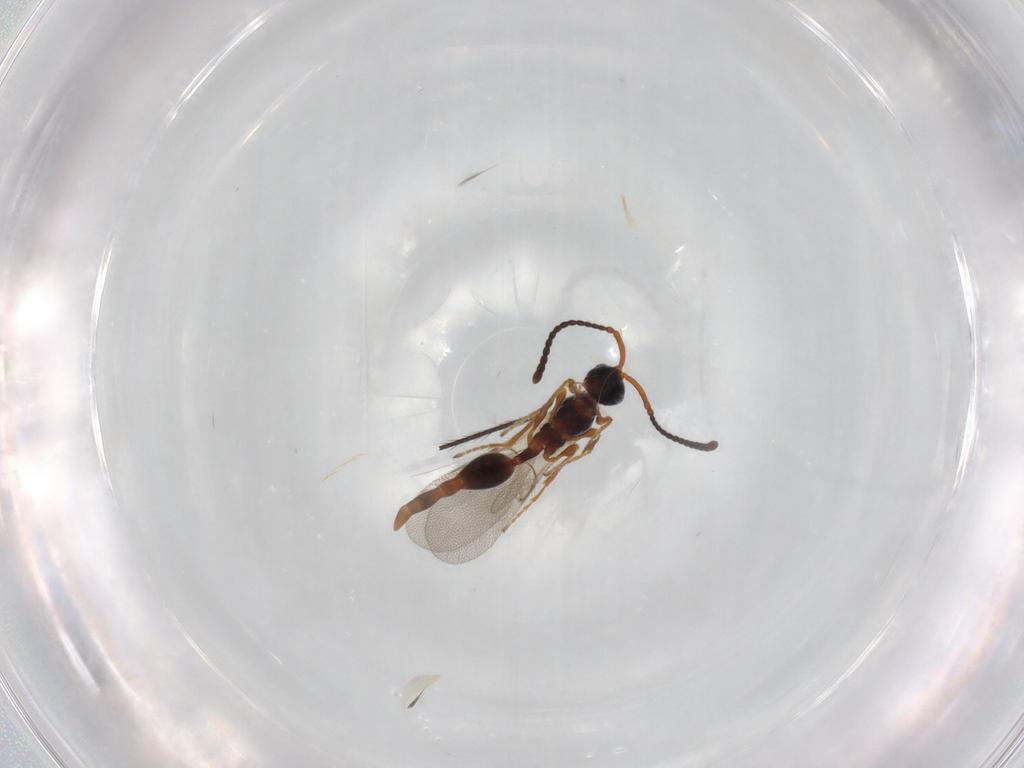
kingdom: Animalia
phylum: Arthropoda
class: Insecta
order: Hymenoptera
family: Diapriidae
